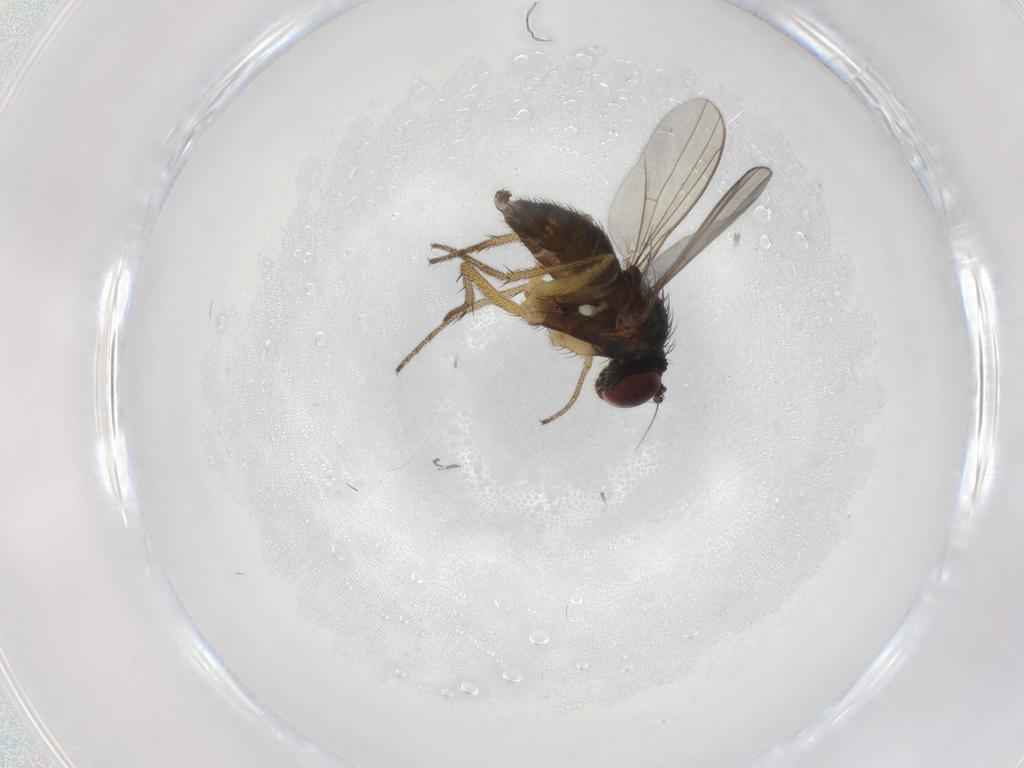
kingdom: Animalia
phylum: Arthropoda
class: Insecta
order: Diptera
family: Dolichopodidae
